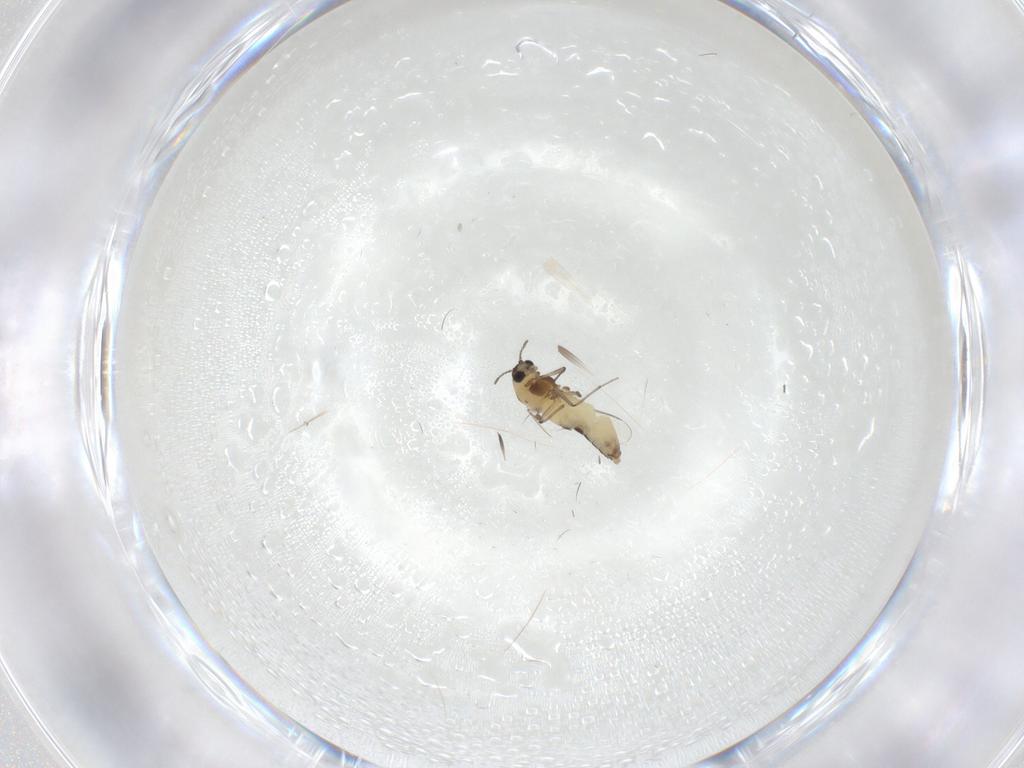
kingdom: Animalia
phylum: Arthropoda
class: Insecta
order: Diptera
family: Chironomidae
